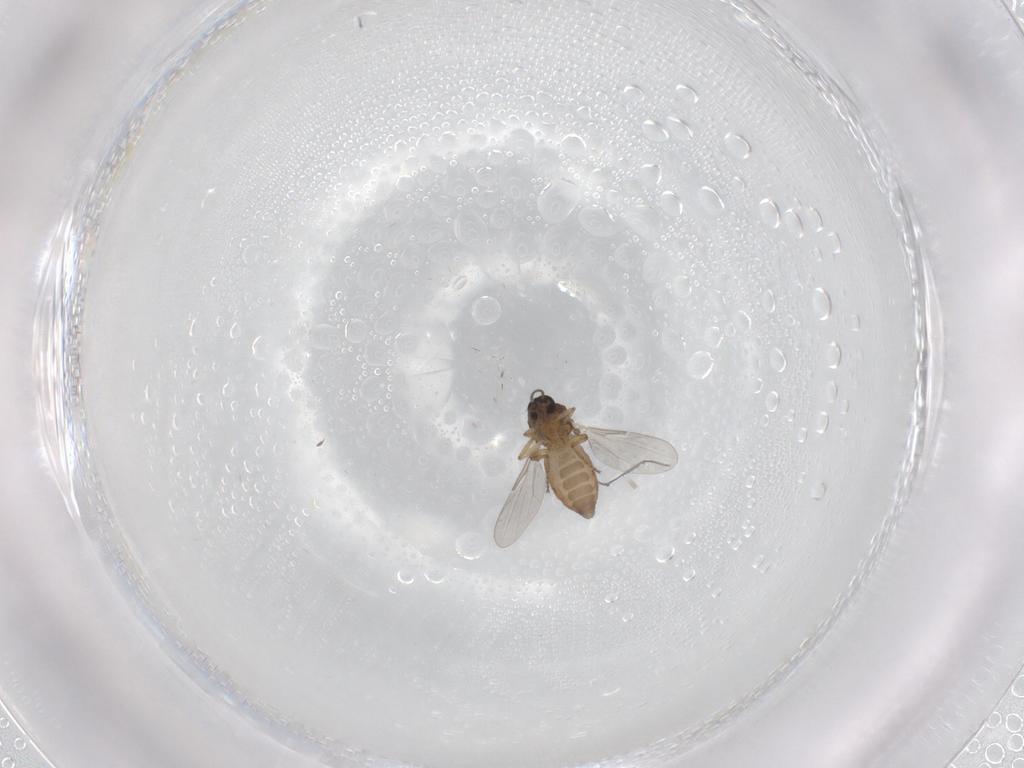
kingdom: Animalia
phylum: Arthropoda
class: Insecta
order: Diptera
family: Ceratopogonidae
